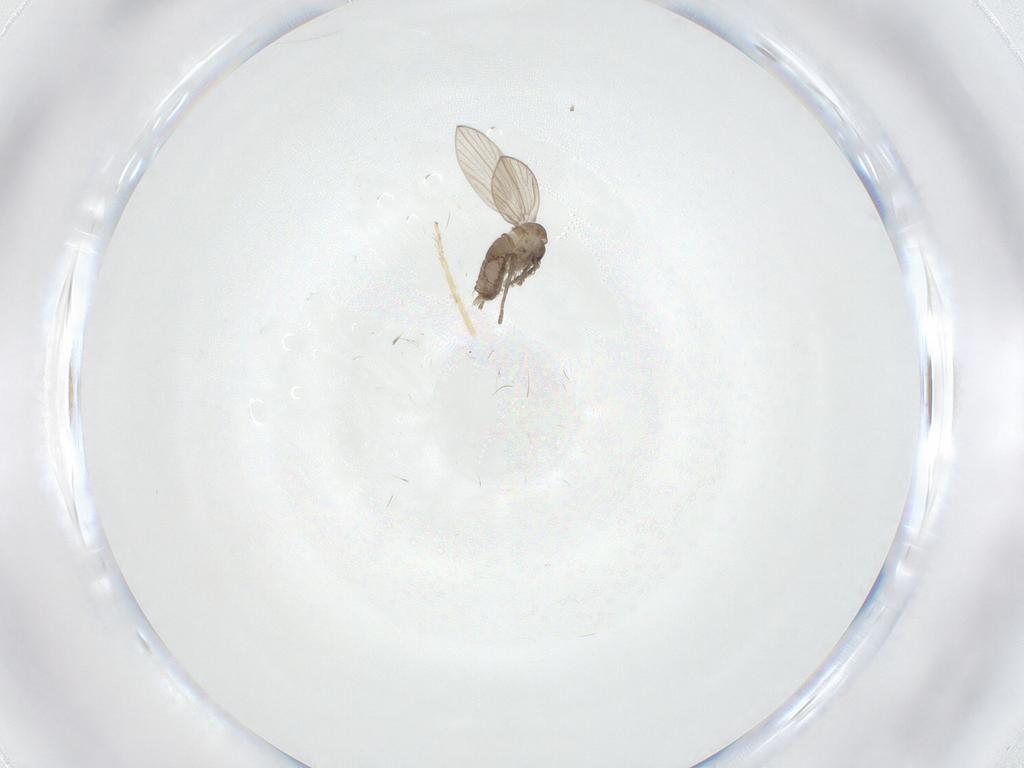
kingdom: Animalia
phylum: Arthropoda
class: Insecta
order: Diptera
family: Psychodidae
